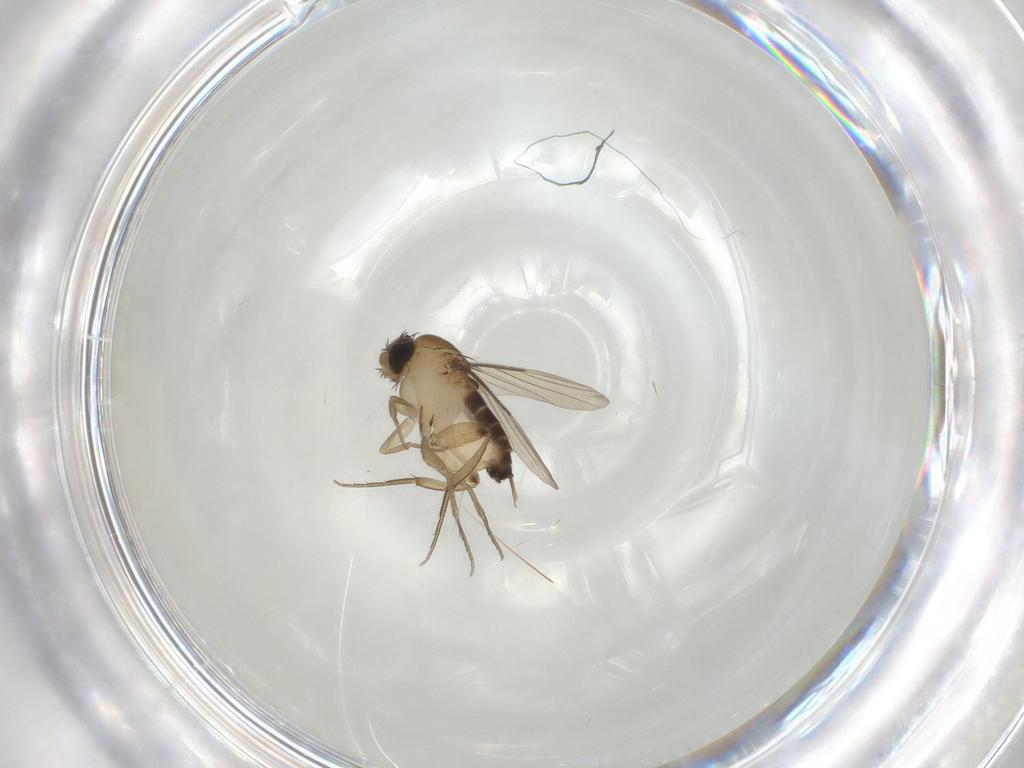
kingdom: Animalia
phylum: Arthropoda
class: Insecta
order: Diptera
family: Phoridae
